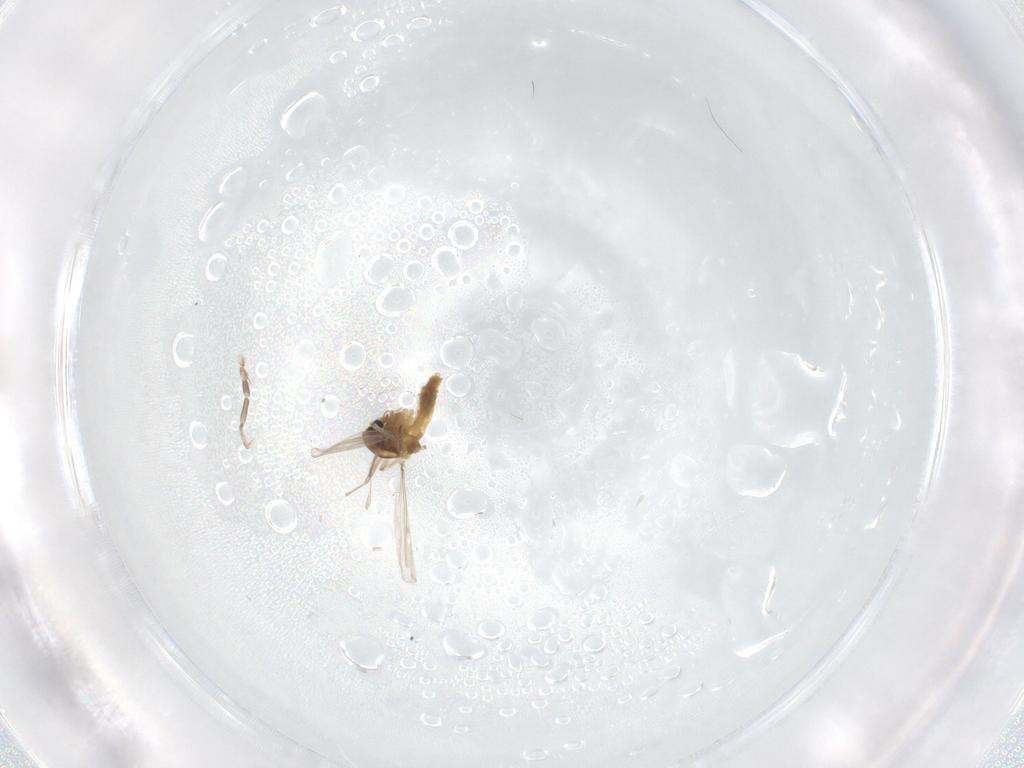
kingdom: Animalia
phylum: Arthropoda
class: Insecta
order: Diptera
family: Chironomidae
